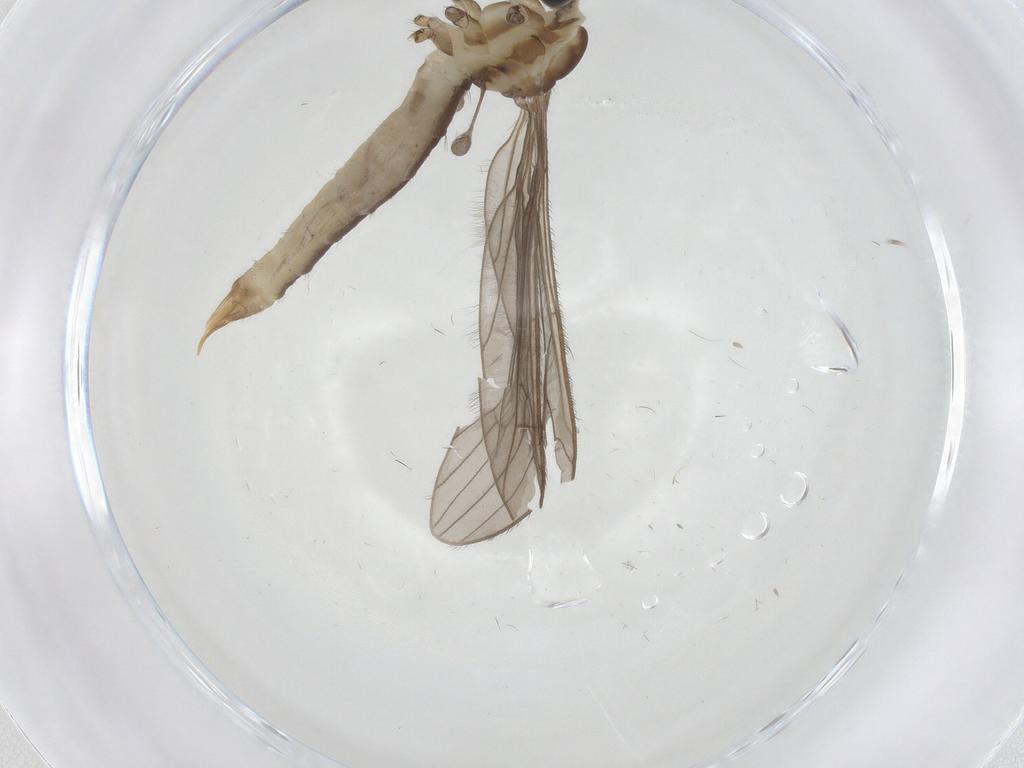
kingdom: Animalia
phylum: Arthropoda
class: Insecta
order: Diptera
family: Limoniidae
